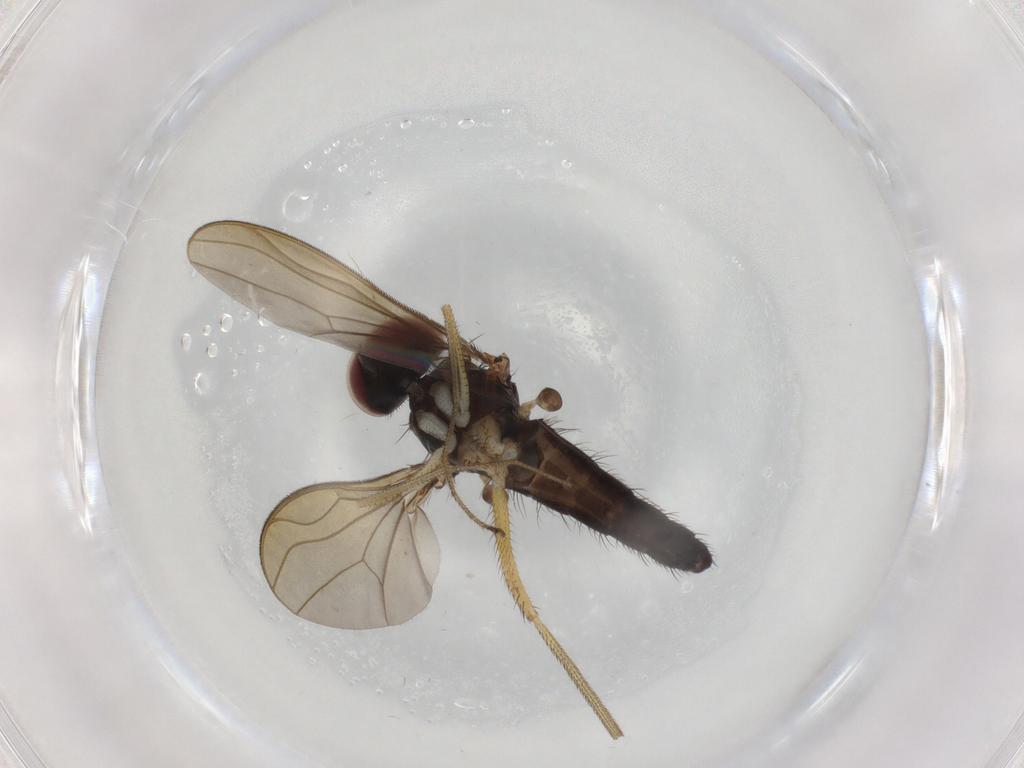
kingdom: Animalia
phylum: Arthropoda
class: Insecta
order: Diptera
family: Dolichopodidae
